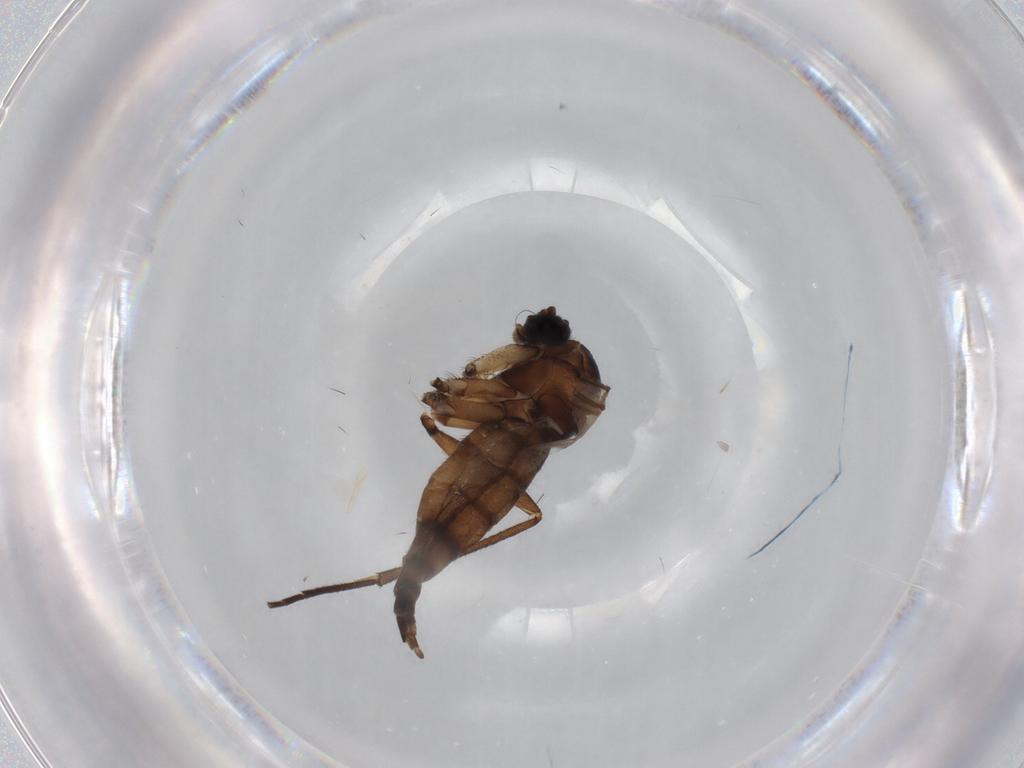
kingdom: Animalia
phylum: Arthropoda
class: Insecta
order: Diptera
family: Sciaridae
